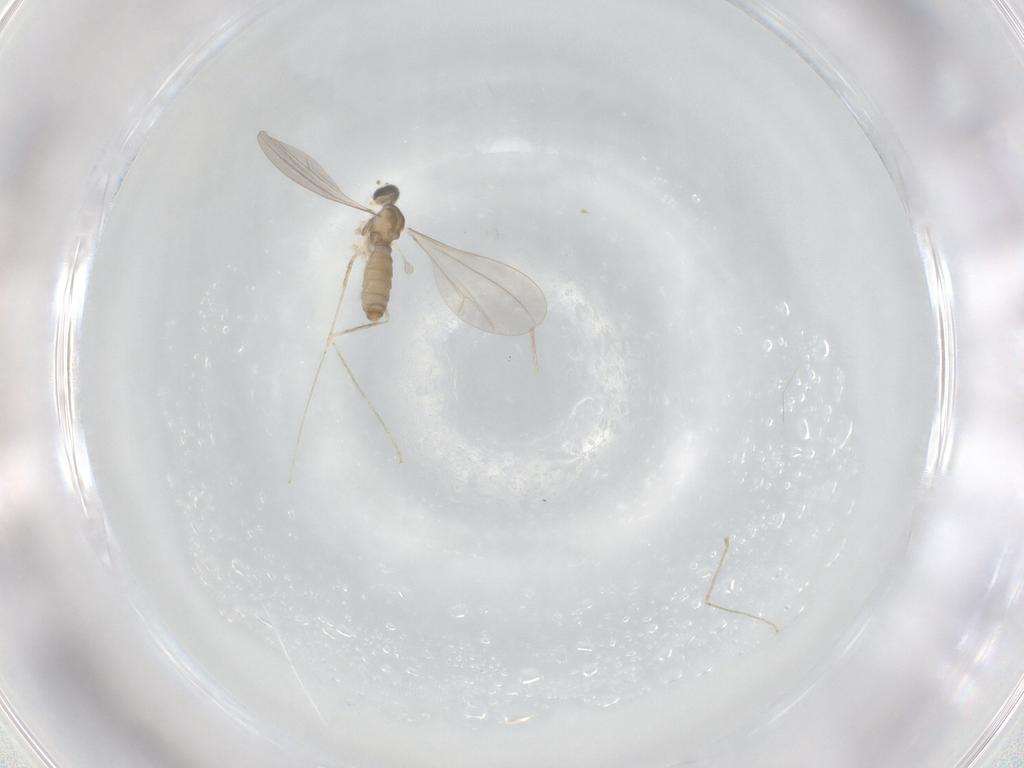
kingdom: Animalia
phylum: Arthropoda
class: Insecta
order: Diptera
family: Cecidomyiidae
